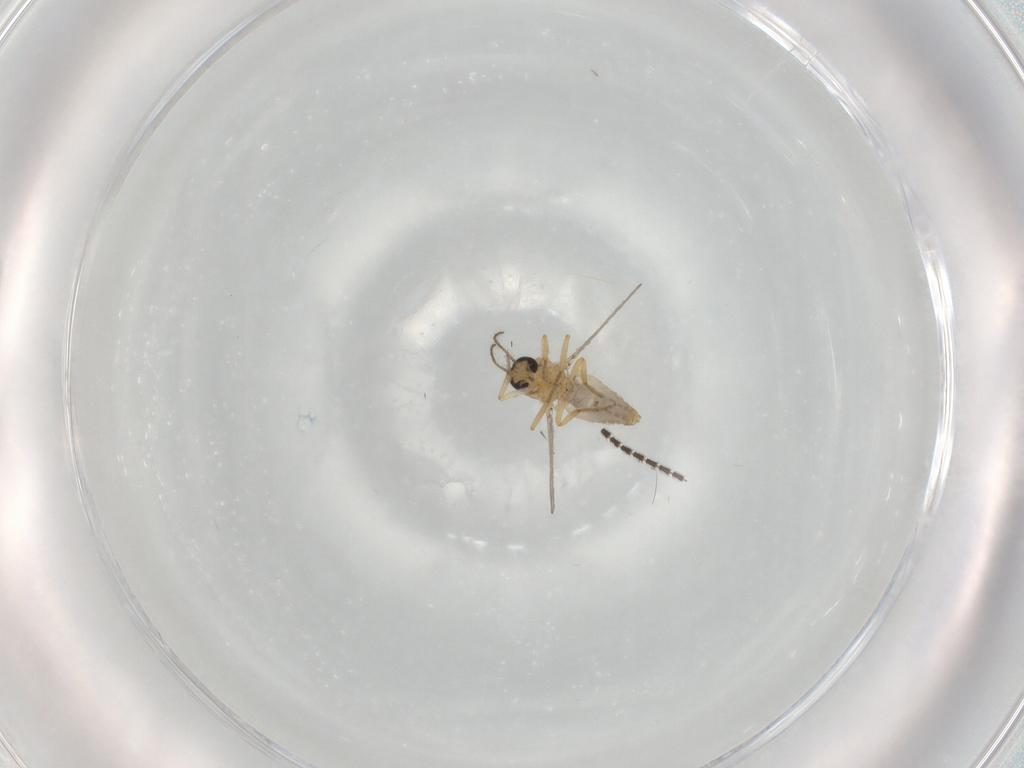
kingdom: Animalia
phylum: Arthropoda
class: Insecta
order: Diptera
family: Ceratopogonidae
